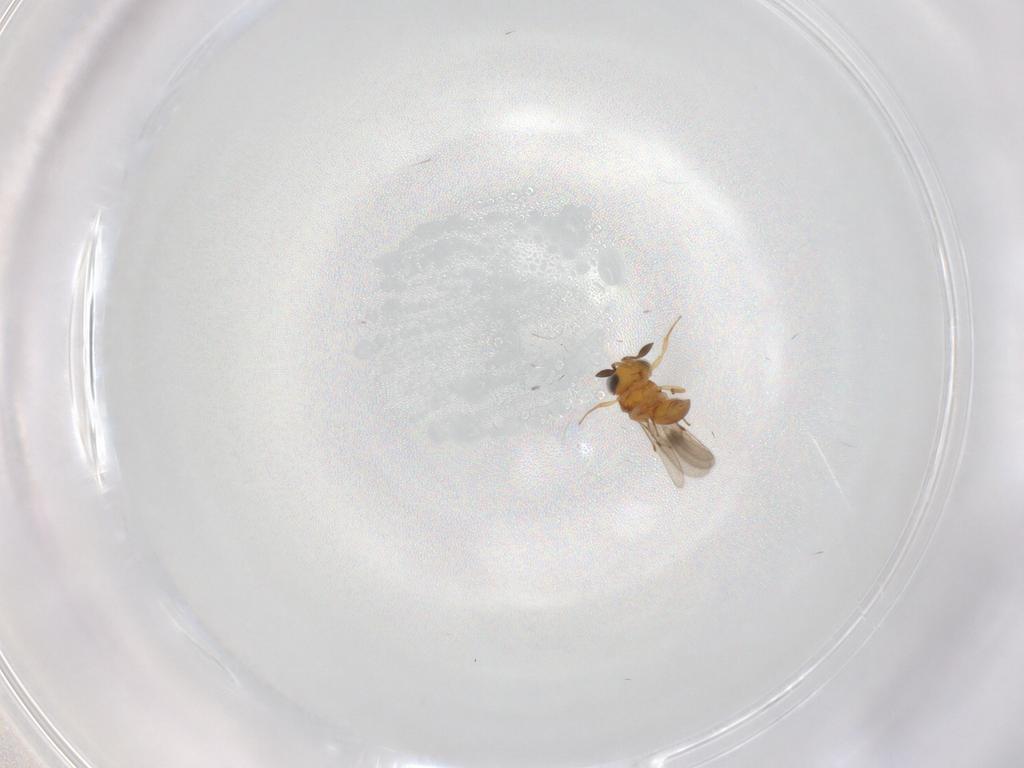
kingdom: Animalia
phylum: Arthropoda
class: Insecta
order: Hymenoptera
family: Scelionidae
